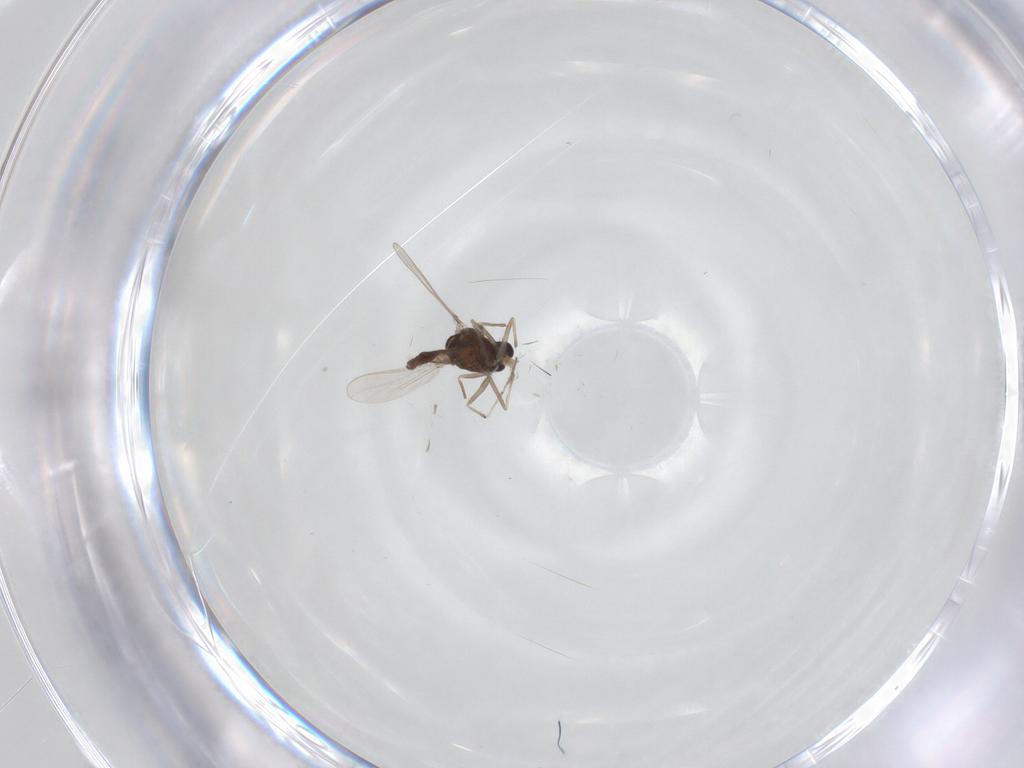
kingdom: Animalia
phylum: Arthropoda
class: Insecta
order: Diptera
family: Chironomidae
